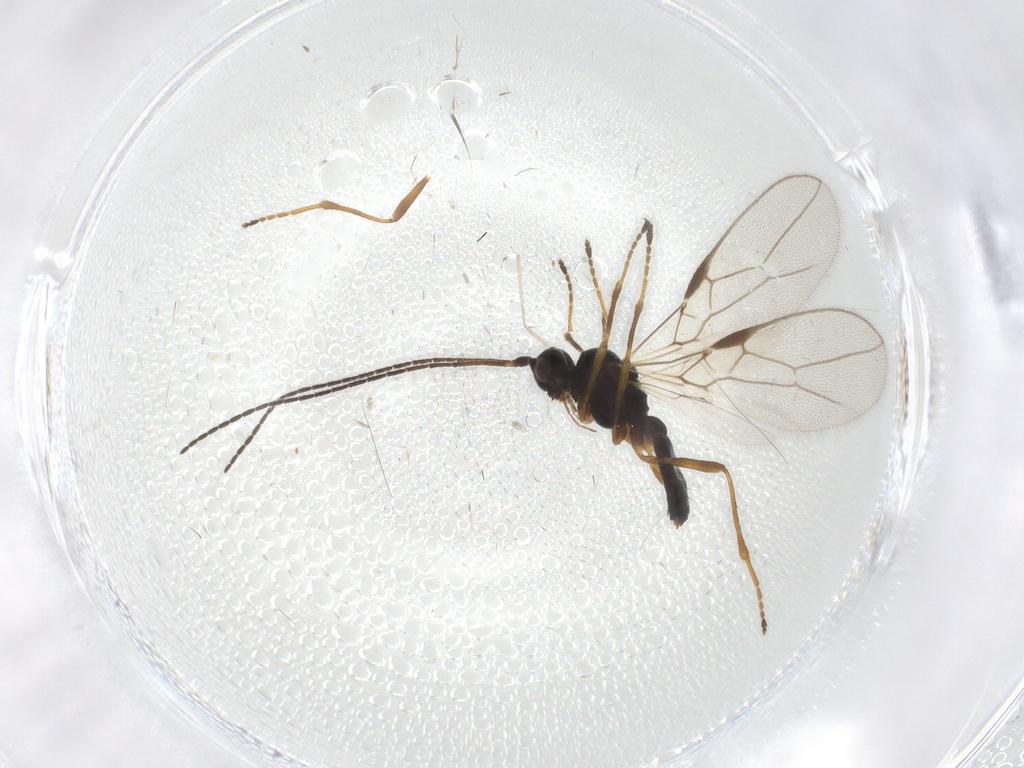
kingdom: Animalia
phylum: Arthropoda
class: Insecta
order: Hymenoptera
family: Braconidae
